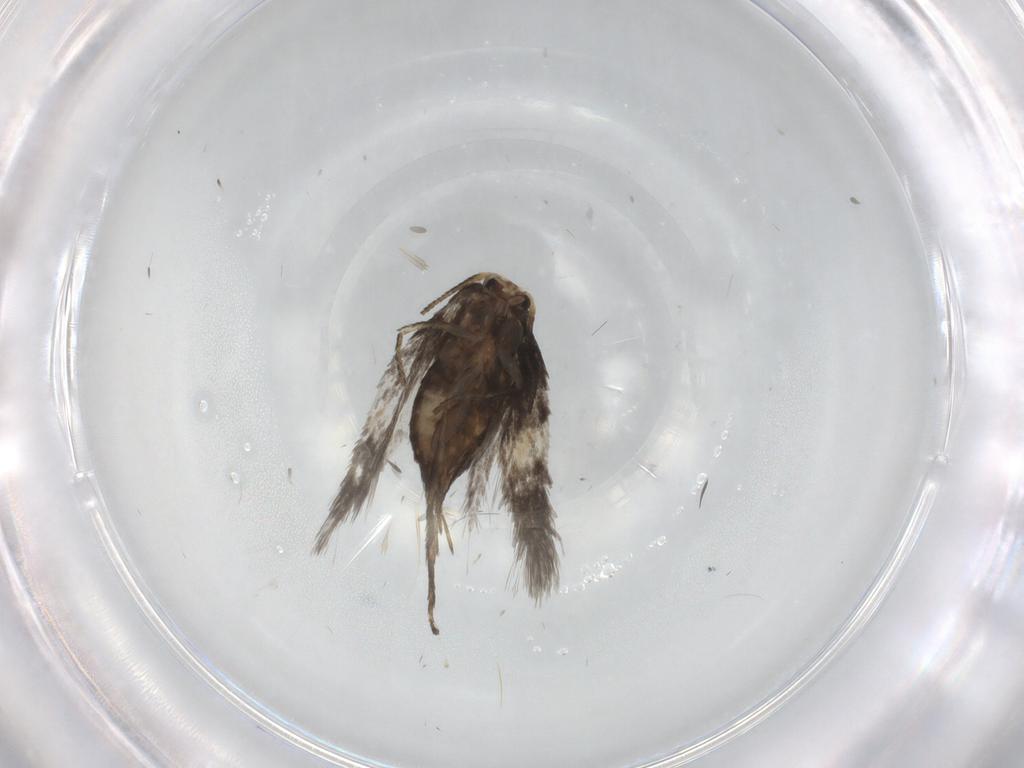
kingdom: Animalia
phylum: Arthropoda
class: Insecta
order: Lepidoptera
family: Nepticulidae
